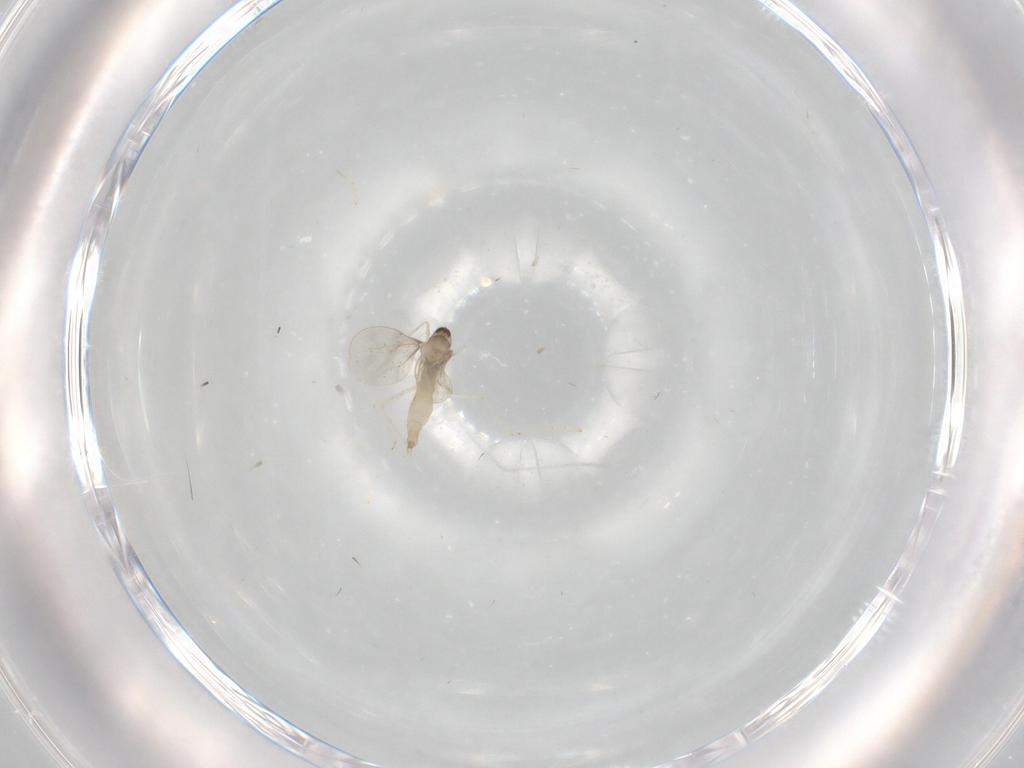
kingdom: Animalia
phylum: Arthropoda
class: Insecta
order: Diptera
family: Cecidomyiidae
